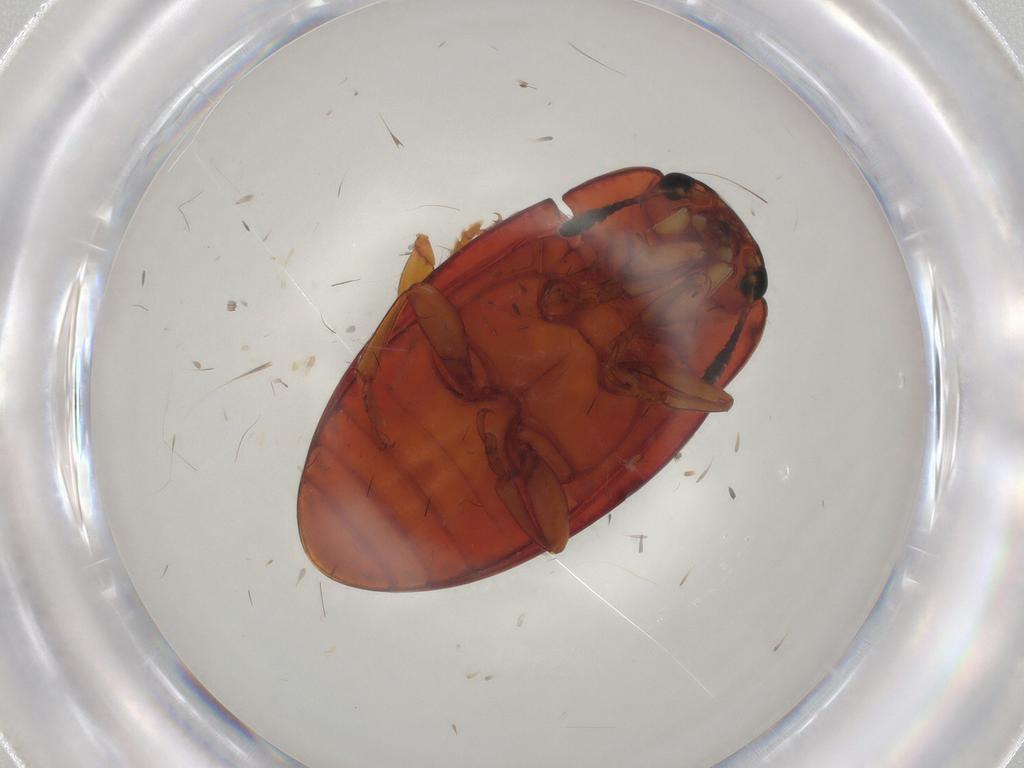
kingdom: Animalia
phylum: Arthropoda
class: Insecta
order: Coleoptera
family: Erotylidae
